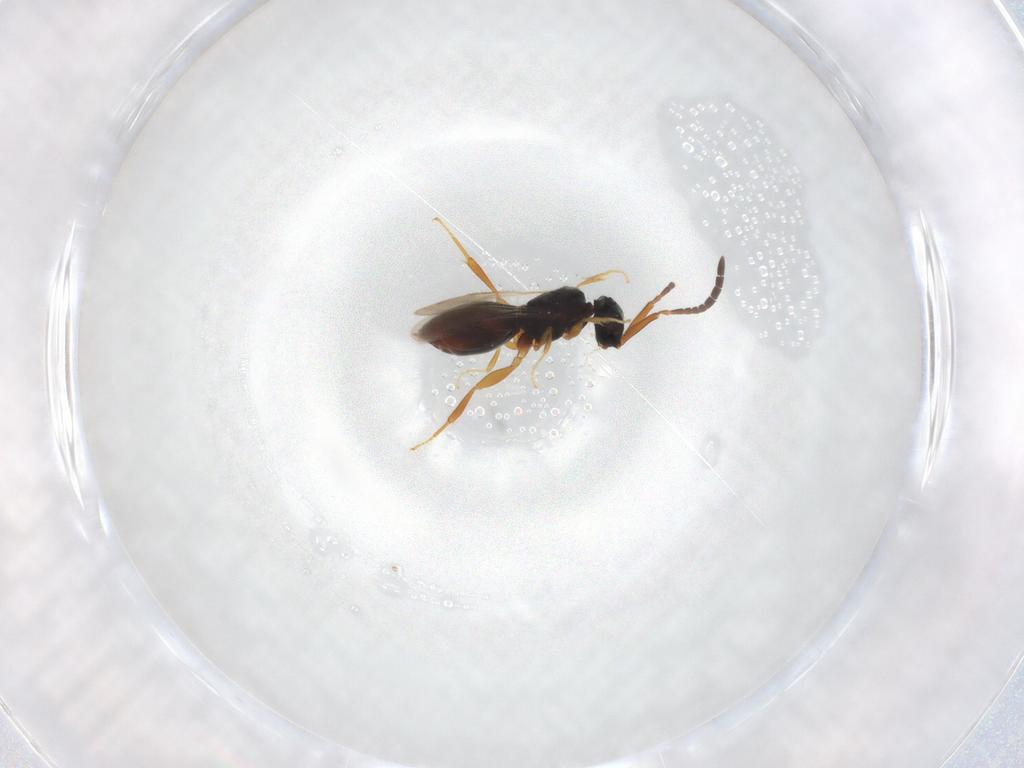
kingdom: Animalia
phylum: Arthropoda
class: Insecta
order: Hymenoptera
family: Ceraphronidae
